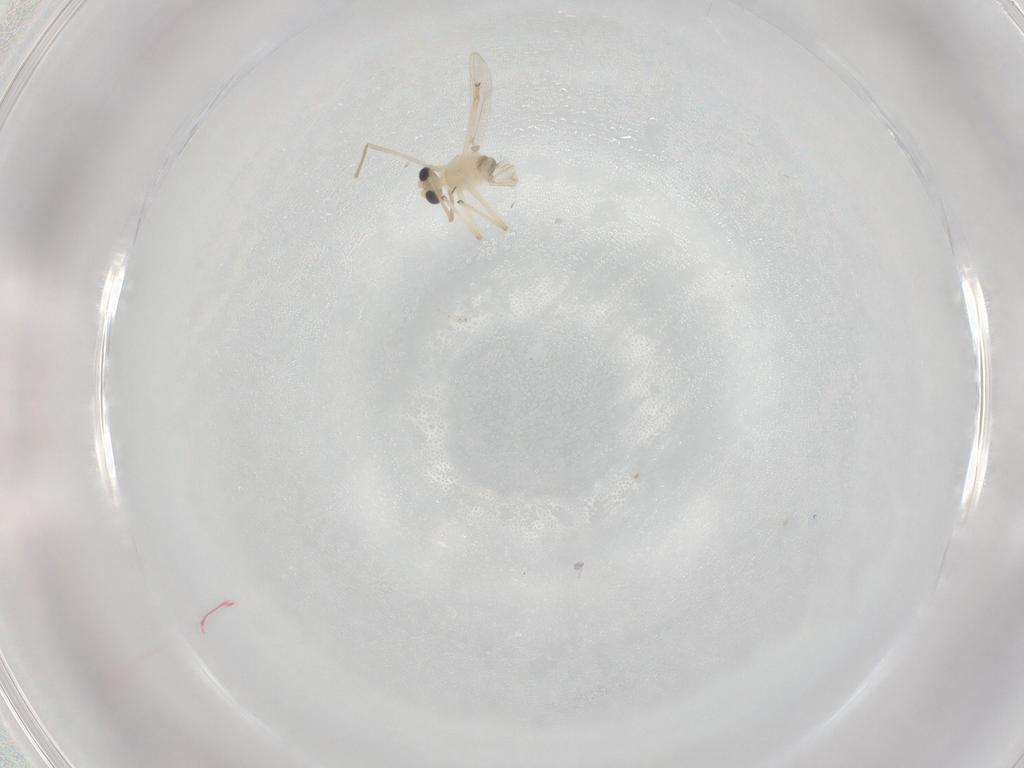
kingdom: Animalia
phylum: Arthropoda
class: Insecta
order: Diptera
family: Chironomidae
